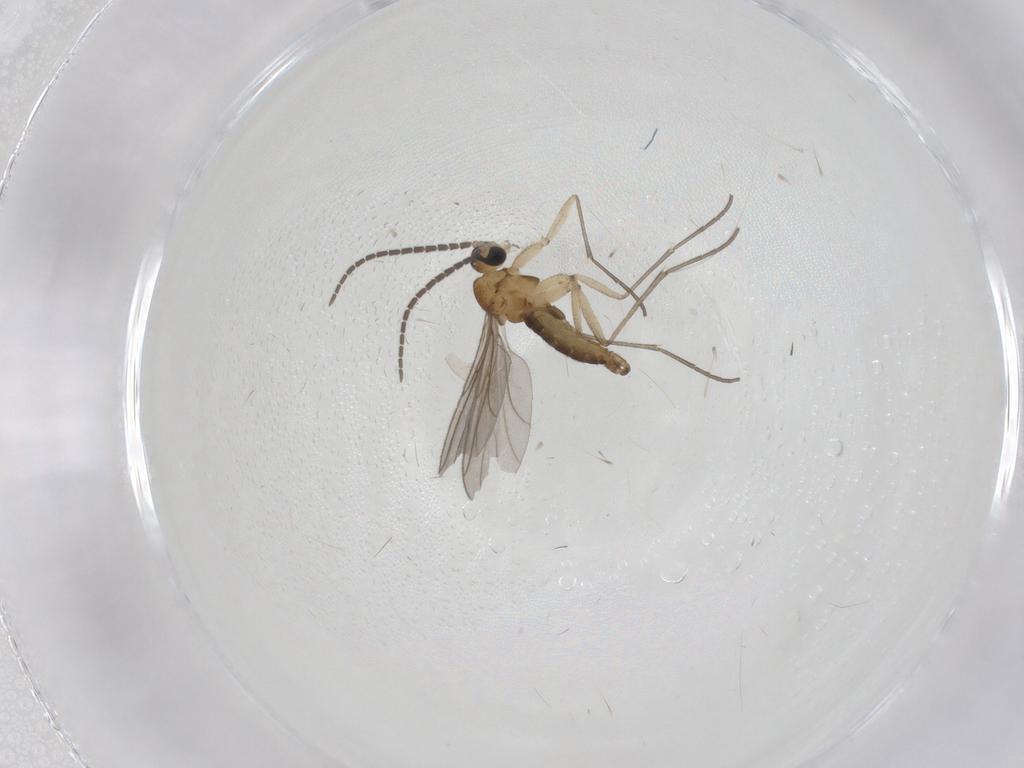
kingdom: Animalia
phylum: Arthropoda
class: Insecta
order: Diptera
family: Sciaridae
